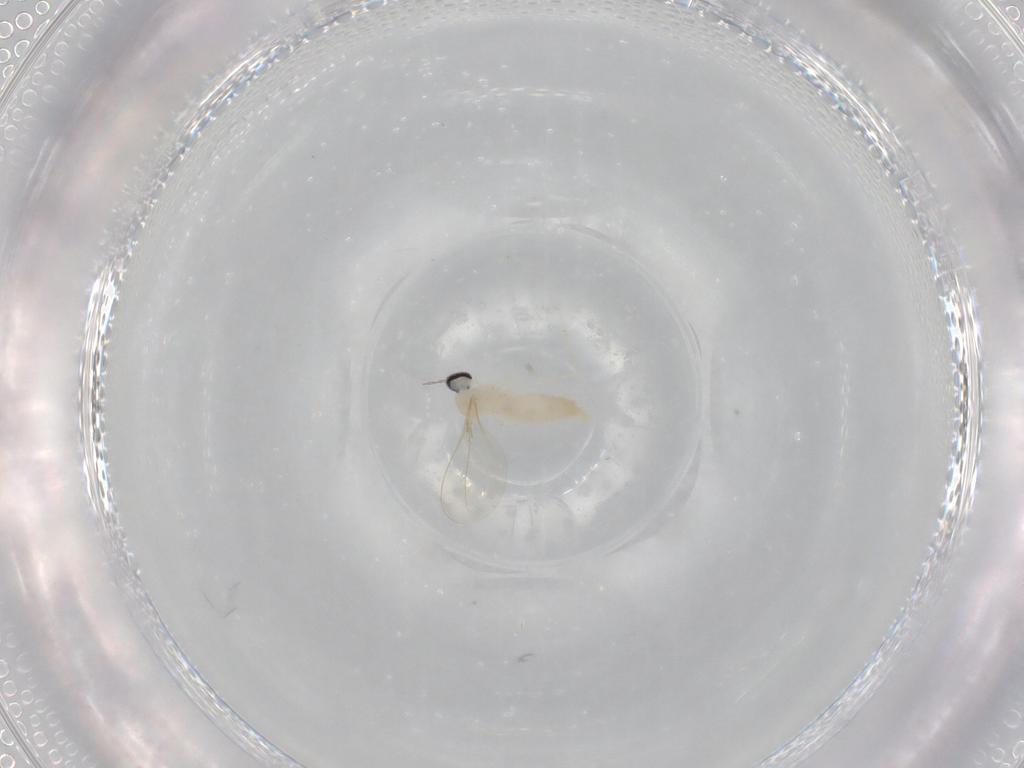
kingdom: Animalia
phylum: Arthropoda
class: Insecta
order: Diptera
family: Cecidomyiidae
